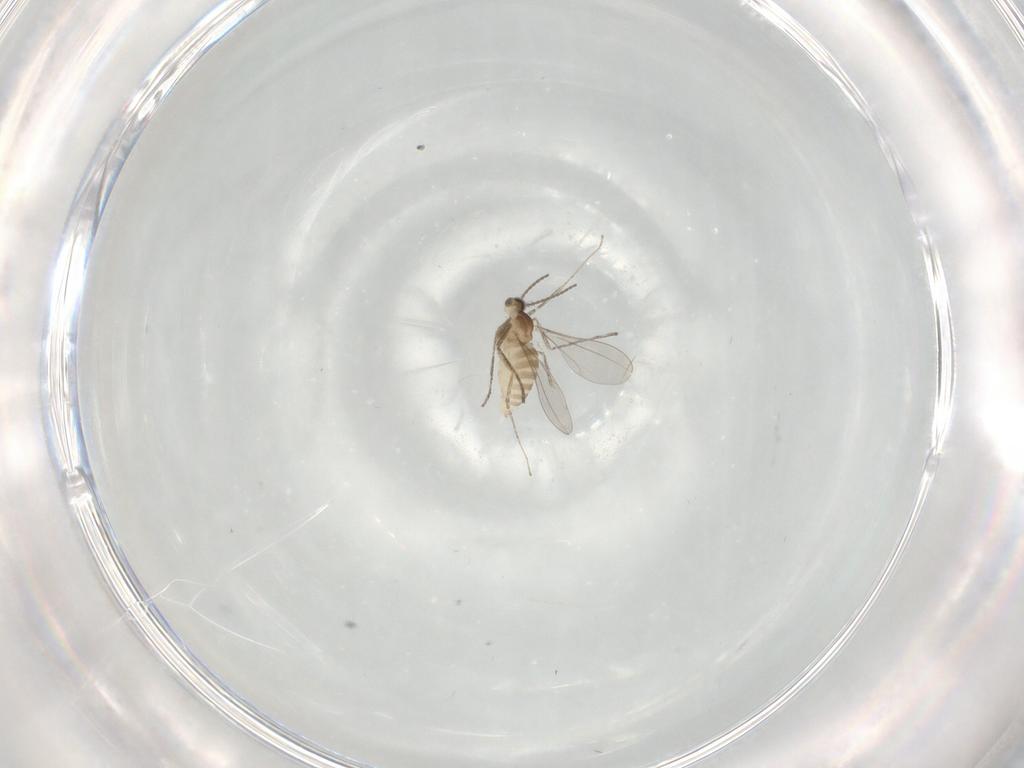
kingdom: Animalia
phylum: Arthropoda
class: Insecta
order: Diptera
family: Cecidomyiidae
